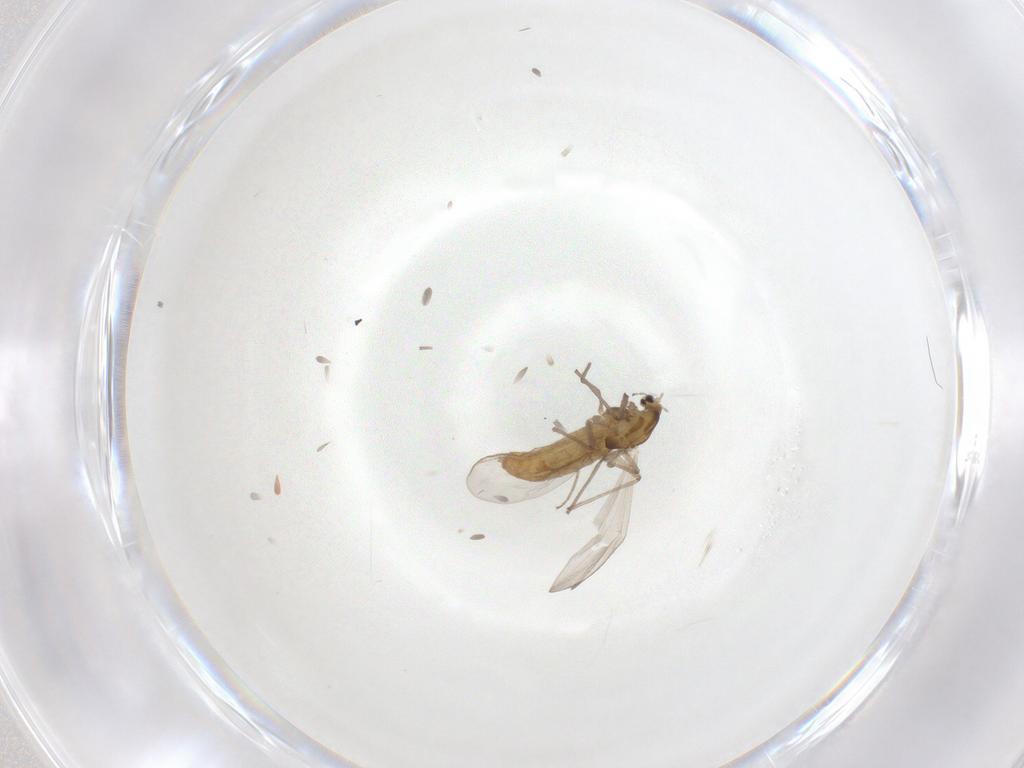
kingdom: Animalia
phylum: Arthropoda
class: Insecta
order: Diptera
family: Chironomidae
